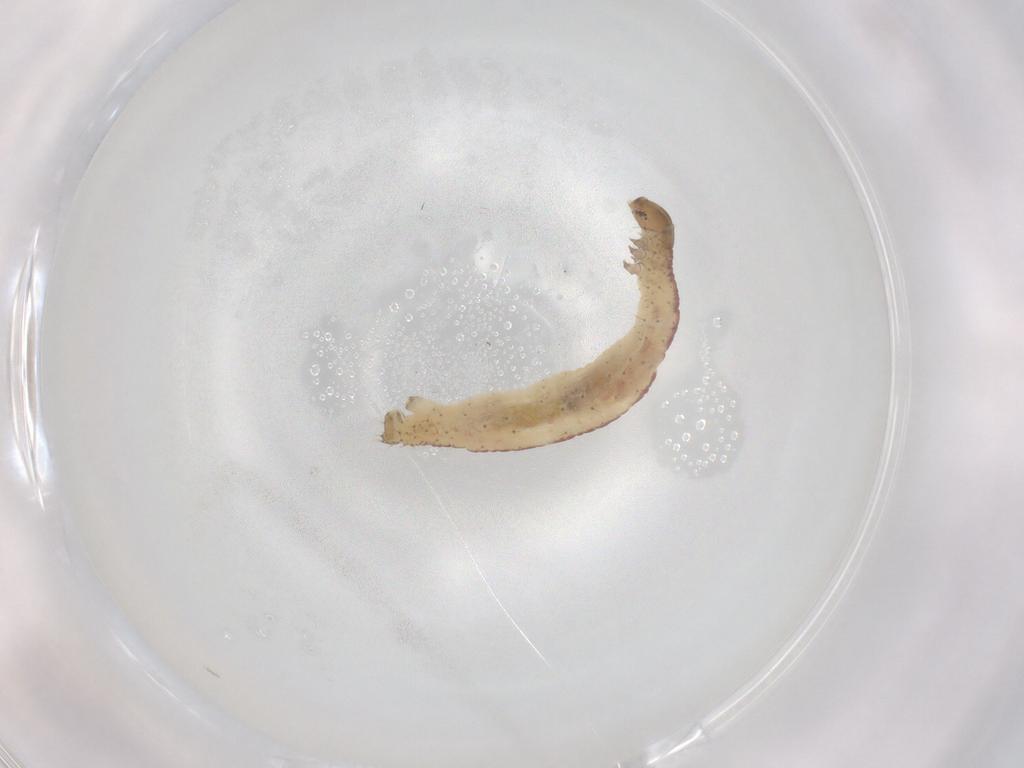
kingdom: Animalia
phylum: Arthropoda
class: Insecta
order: Lepidoptera
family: Geometridae
